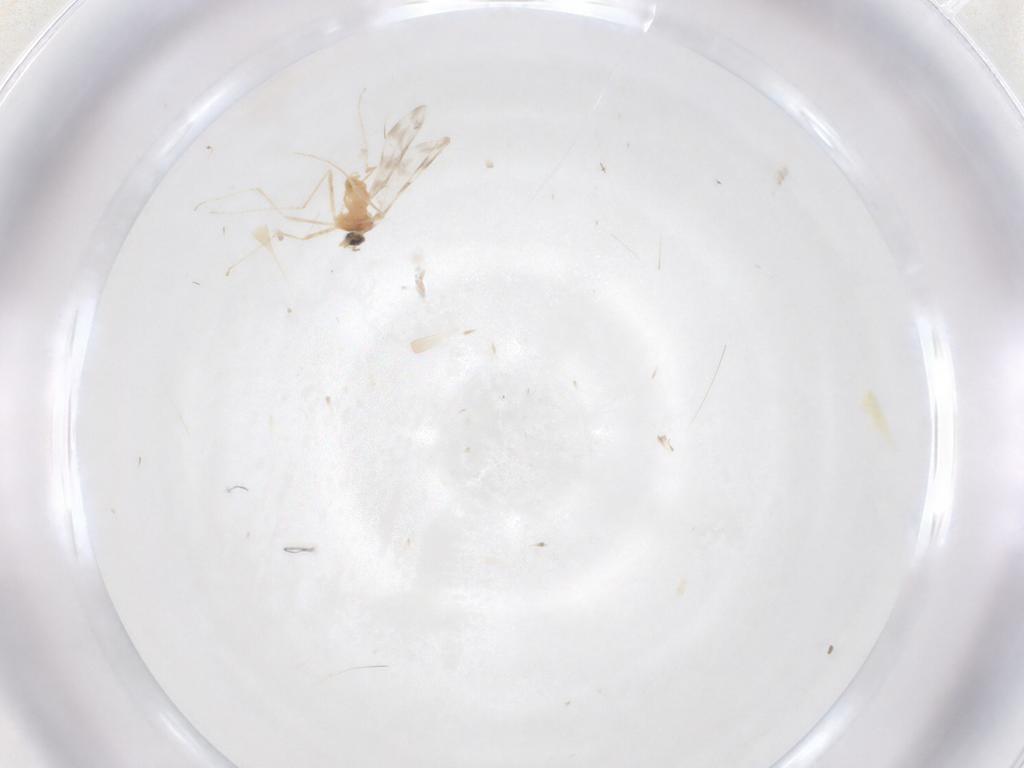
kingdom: Animalia
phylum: Arthropoda
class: Insecta
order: Diptera
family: Cecidomyiidae
